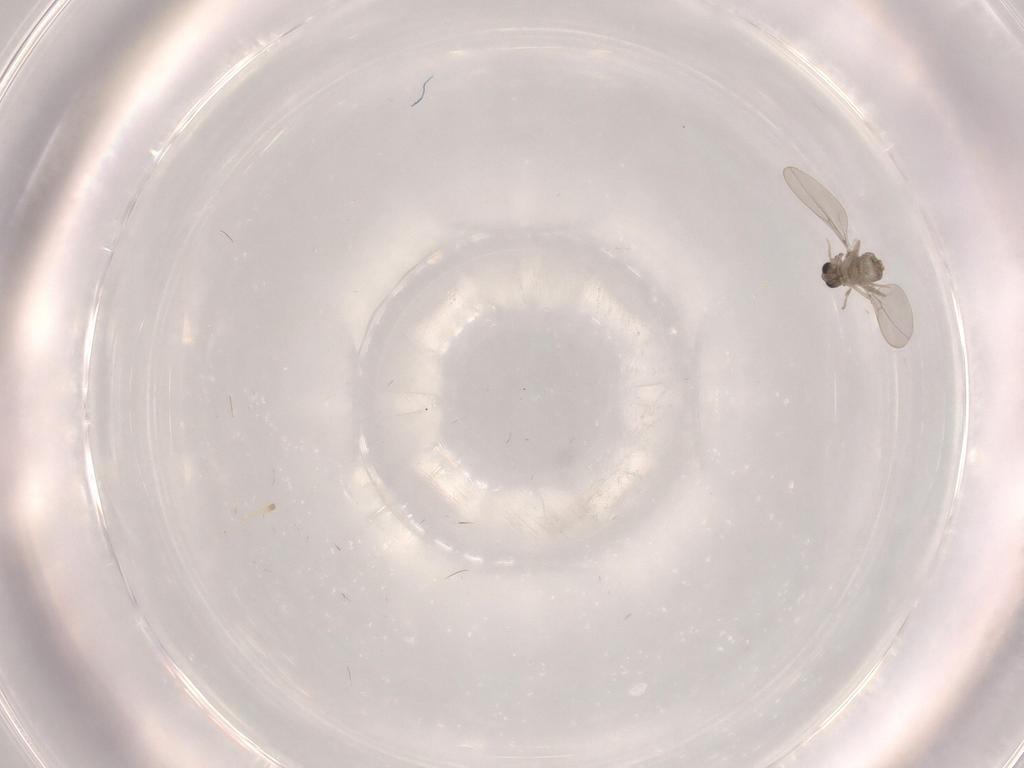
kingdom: Animalia
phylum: Arthropoda
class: Insecta
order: Diptera
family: Cecidomyiidae
